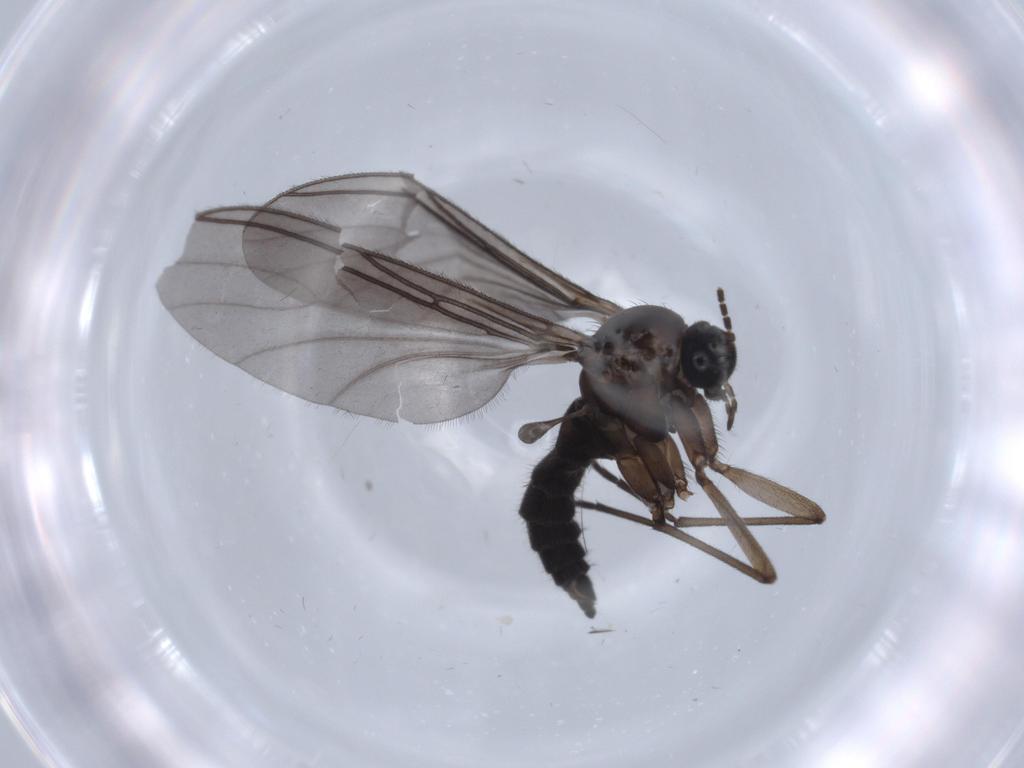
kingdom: Animalia
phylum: Arthropoda
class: Insecta
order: Diptera
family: Sciaridae
